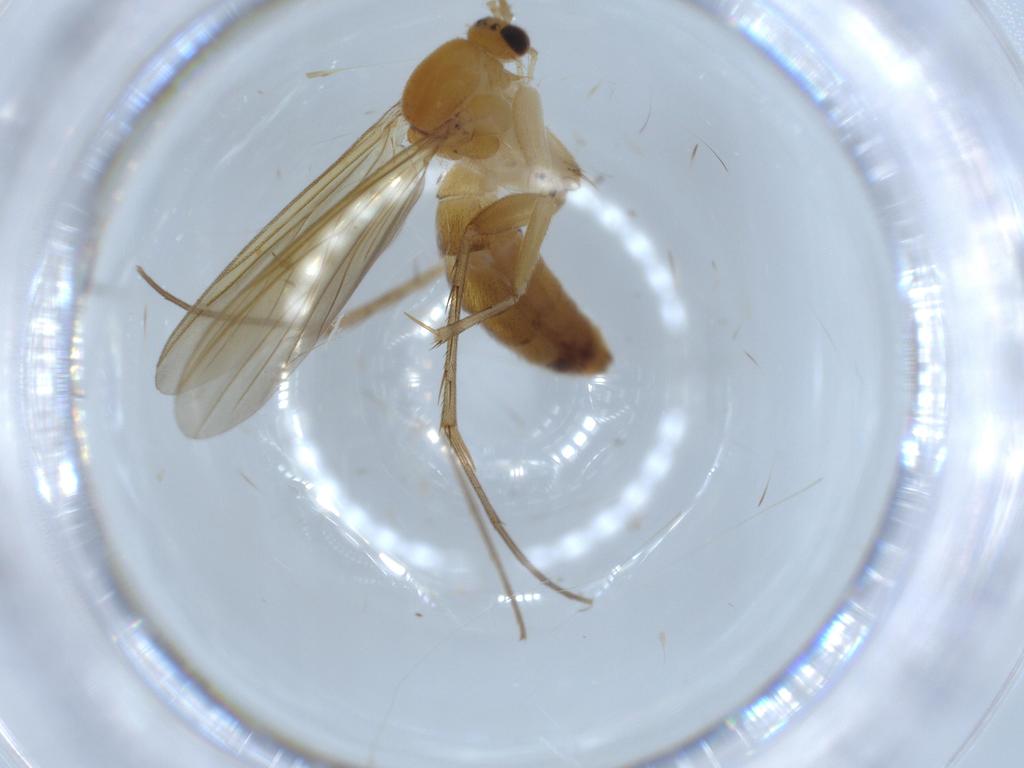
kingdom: Animalia
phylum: Arthropoda
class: Insecta
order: Diptera
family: Mycetophilidae
